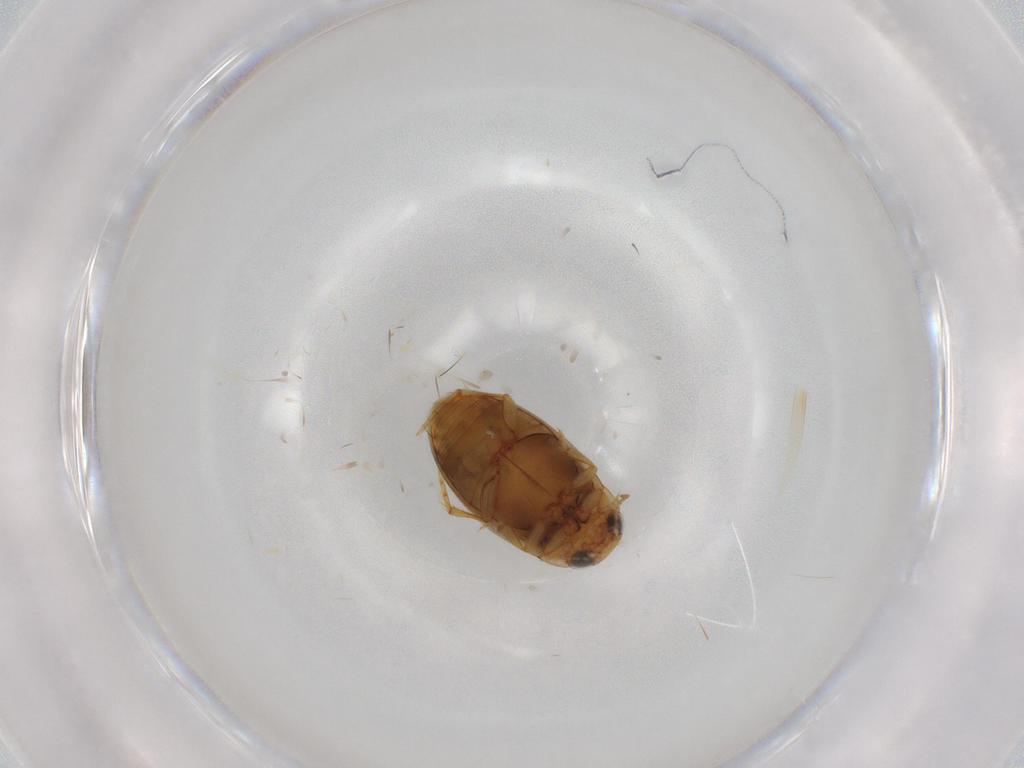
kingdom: Animalia
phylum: Arthropoda
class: Insecta
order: Coleoptera
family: Dytiscidae
